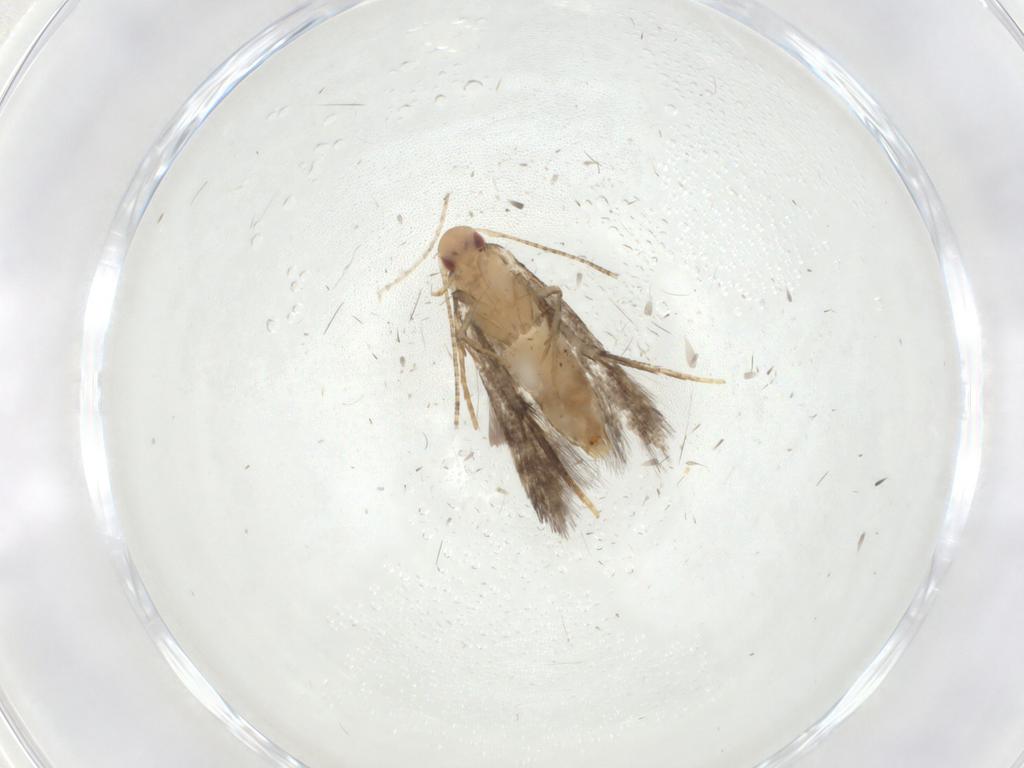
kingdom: Animalia
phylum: Arthropoda
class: Insecta
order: Lepidoptera
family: Momphidae
